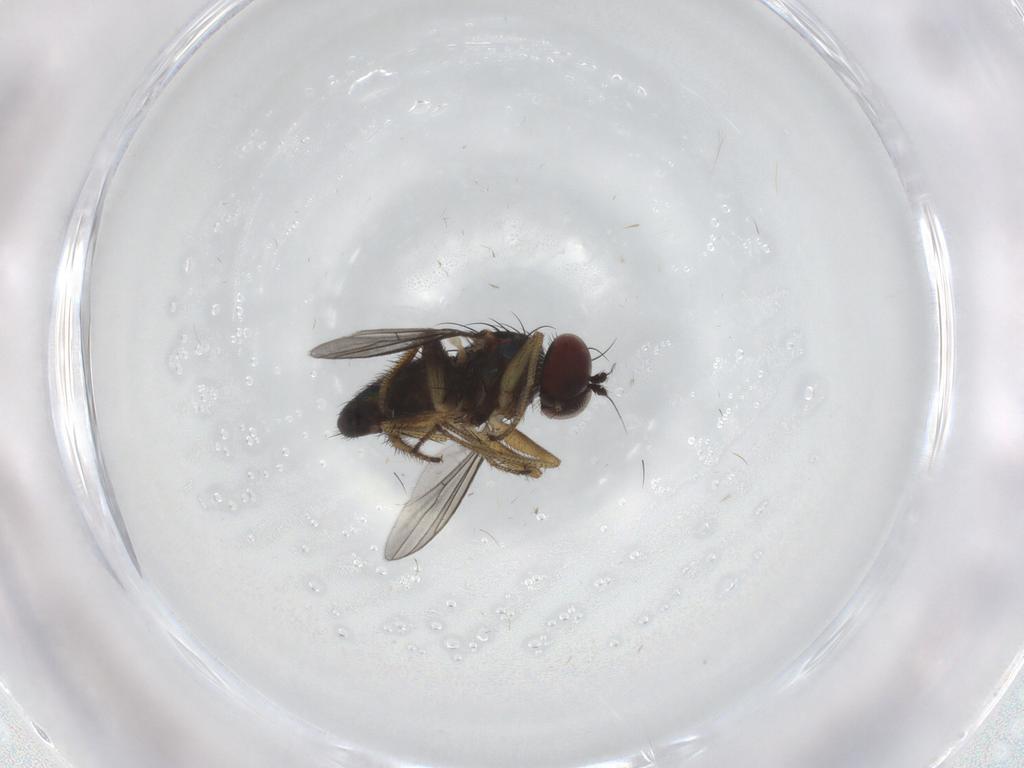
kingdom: Animalia
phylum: Arthropoda
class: Insecta
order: Diptera
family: Dolichopodidae
